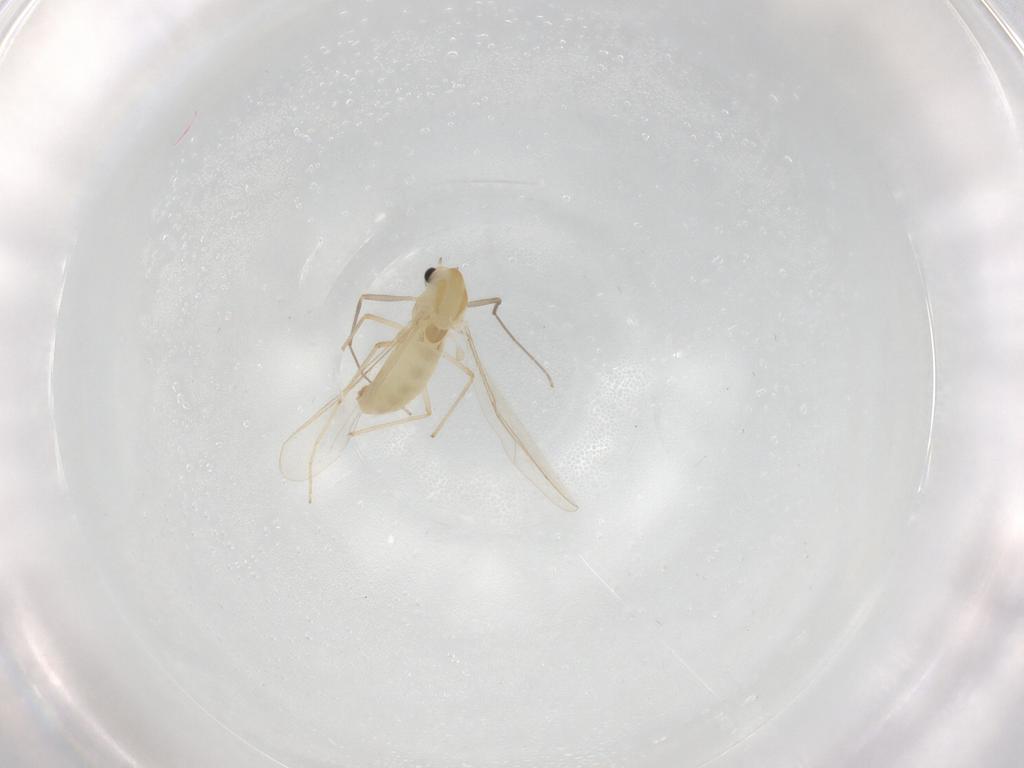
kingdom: Animalia
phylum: Arthropoda
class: Insecta
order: Diptera
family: Chironomidae
